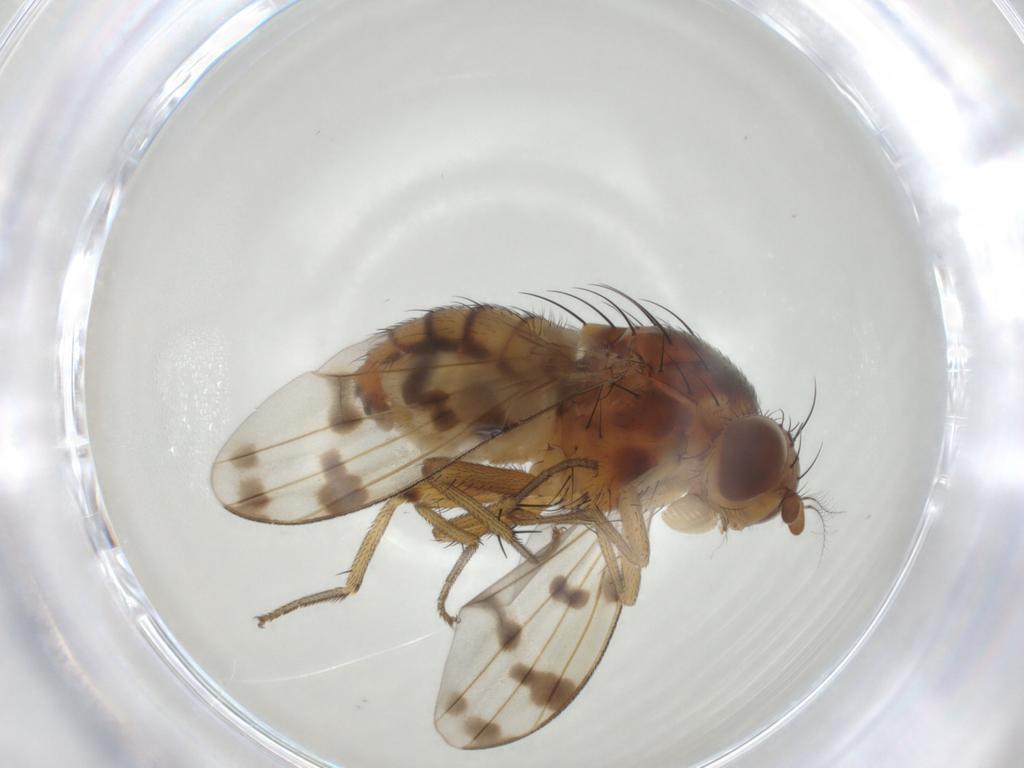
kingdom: Animalia
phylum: Arthropoda
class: Insecta
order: Diptera
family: Lauxaniidae
